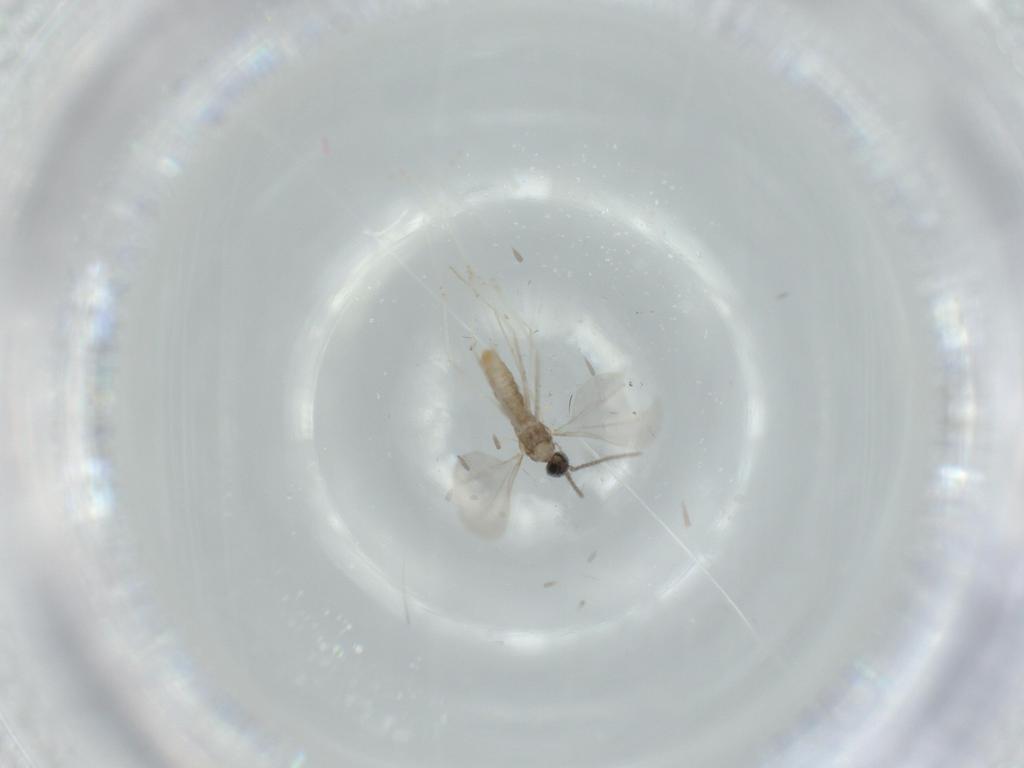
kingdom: Animalia
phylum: Arthropoda
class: Insecta
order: Diptera
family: Cecidomyiidae
